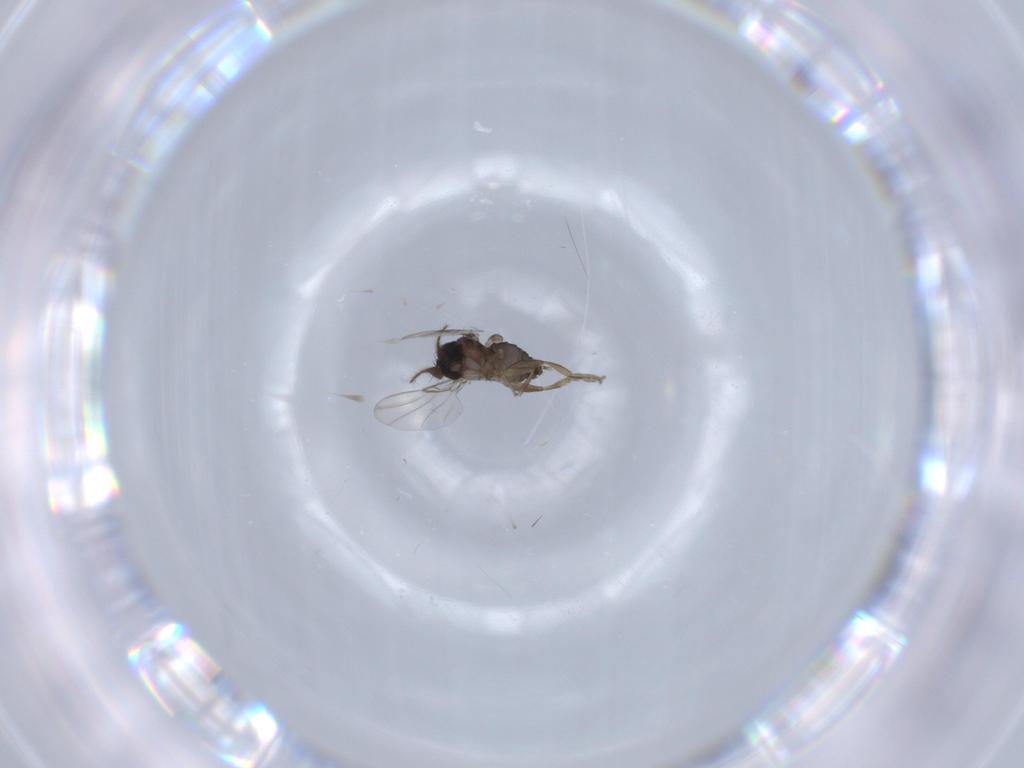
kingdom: Animalia
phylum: Arthropoda
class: Insecta
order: Diptera
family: Phoridae
